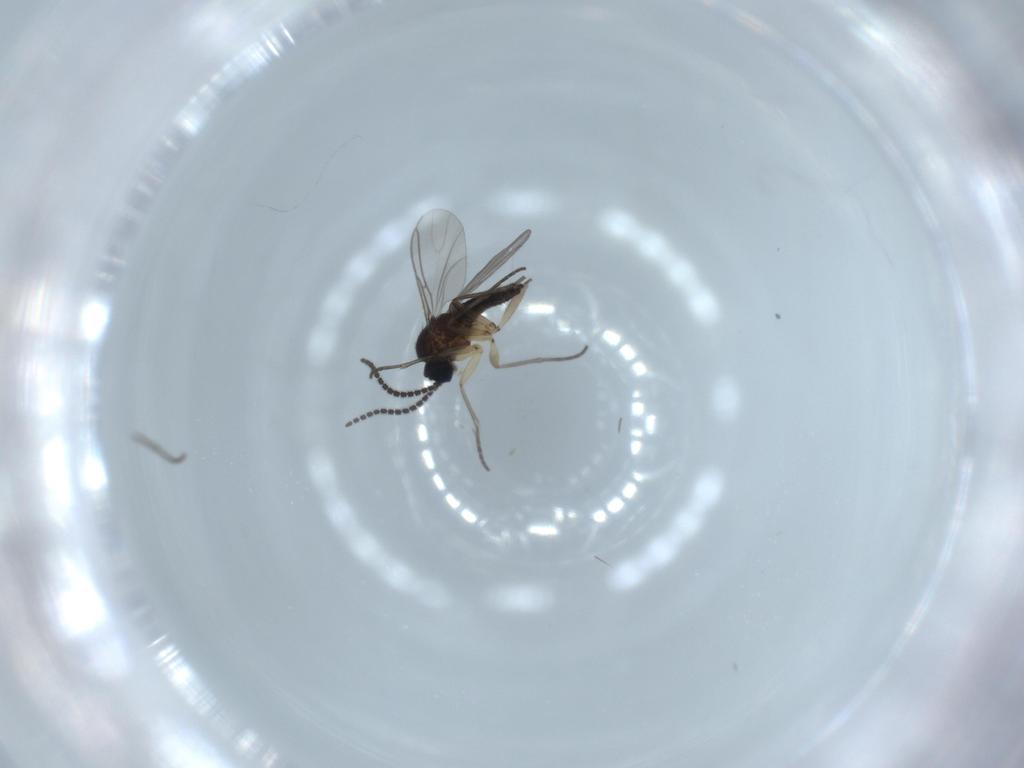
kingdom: Animalia
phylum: Arthropoda
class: Insecta
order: Diptera
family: Sciaridae
